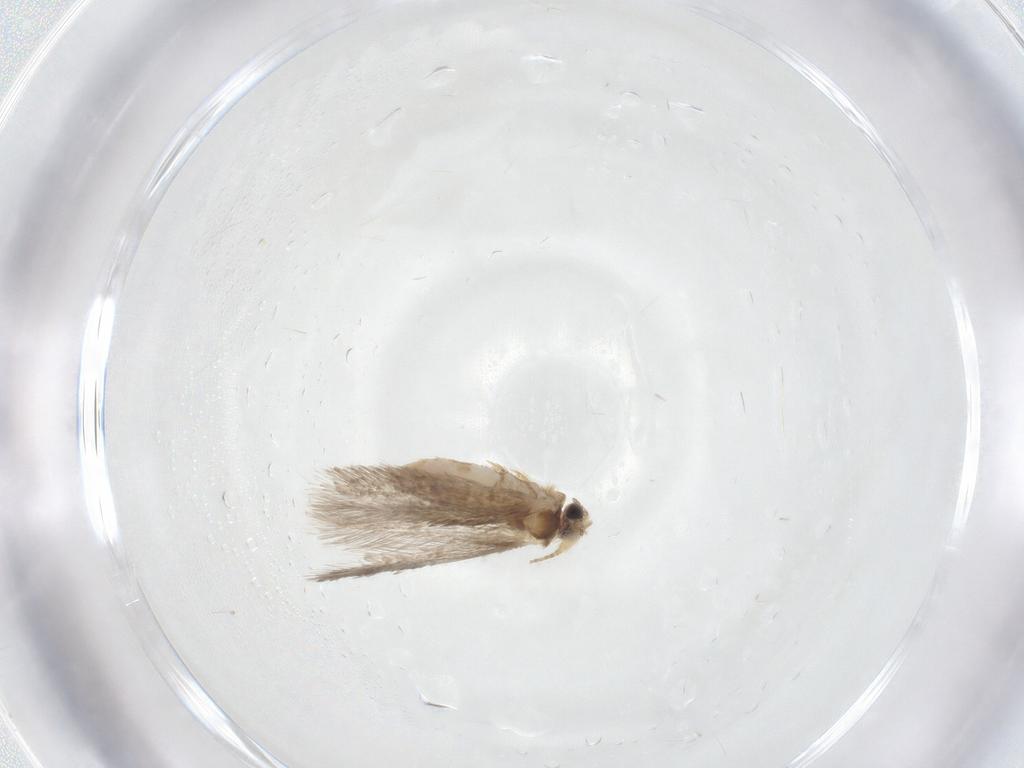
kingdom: Animalia
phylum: Arthropoda
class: Insecta
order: Lepidoptera
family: Nepticulidae
